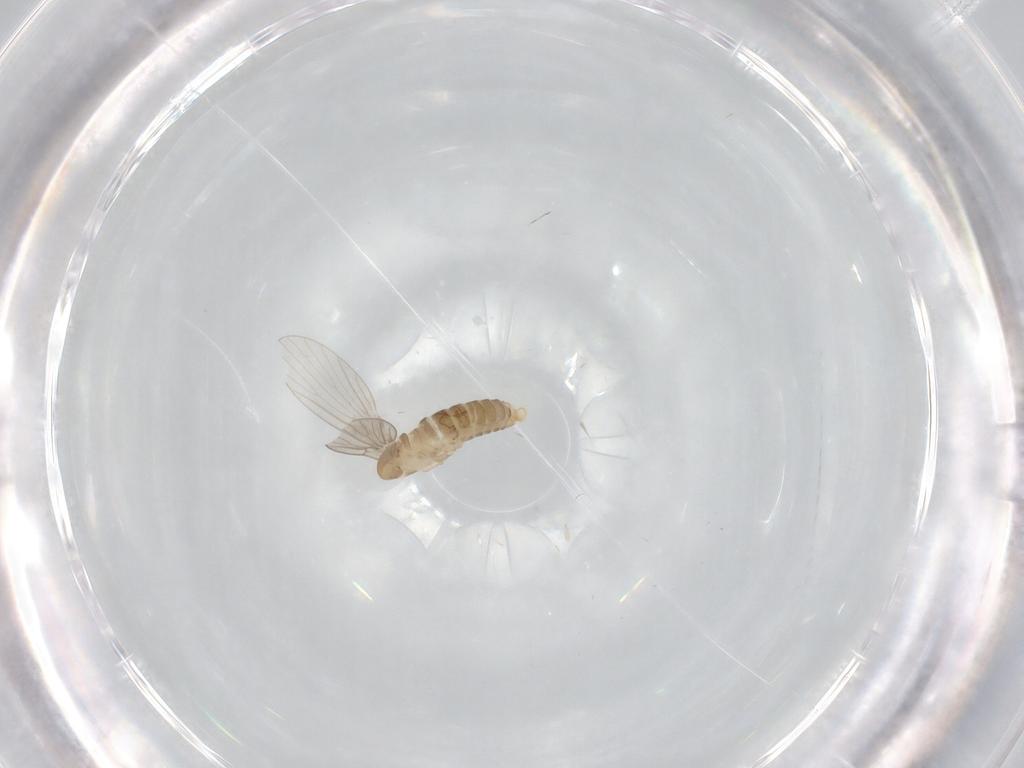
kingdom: Animalia
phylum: Arthropoda
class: Insecta
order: Diptera
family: Psychodidae
